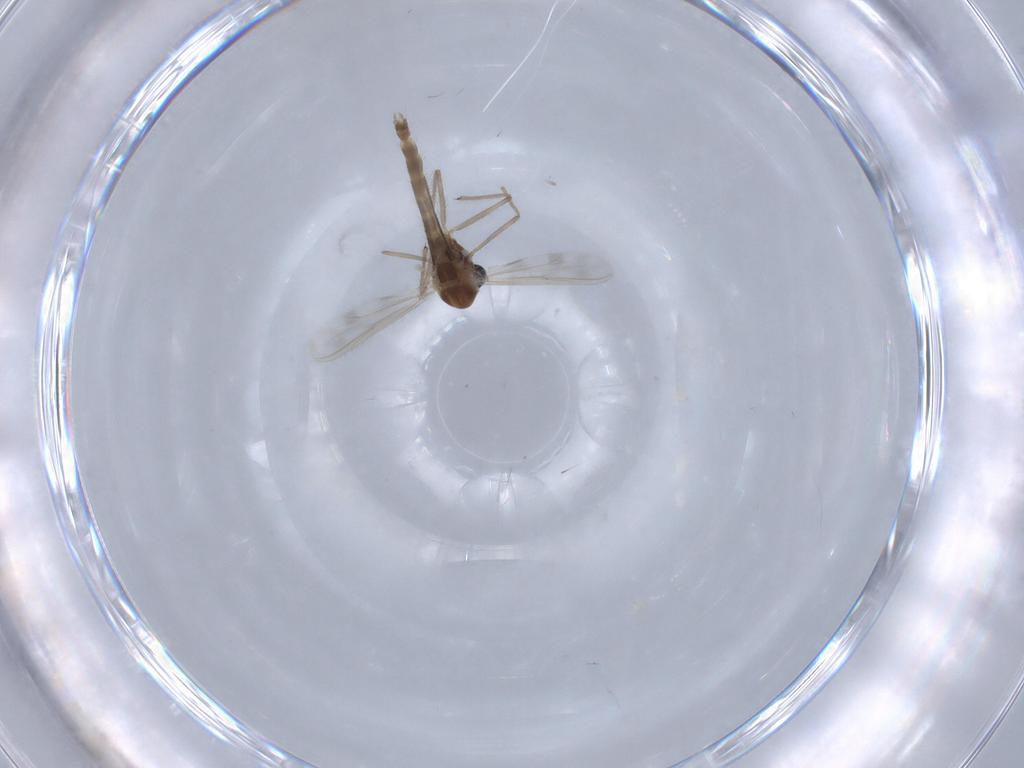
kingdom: Animalia
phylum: Arthropoda
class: Insecta
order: Diptera
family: Chironomidae
